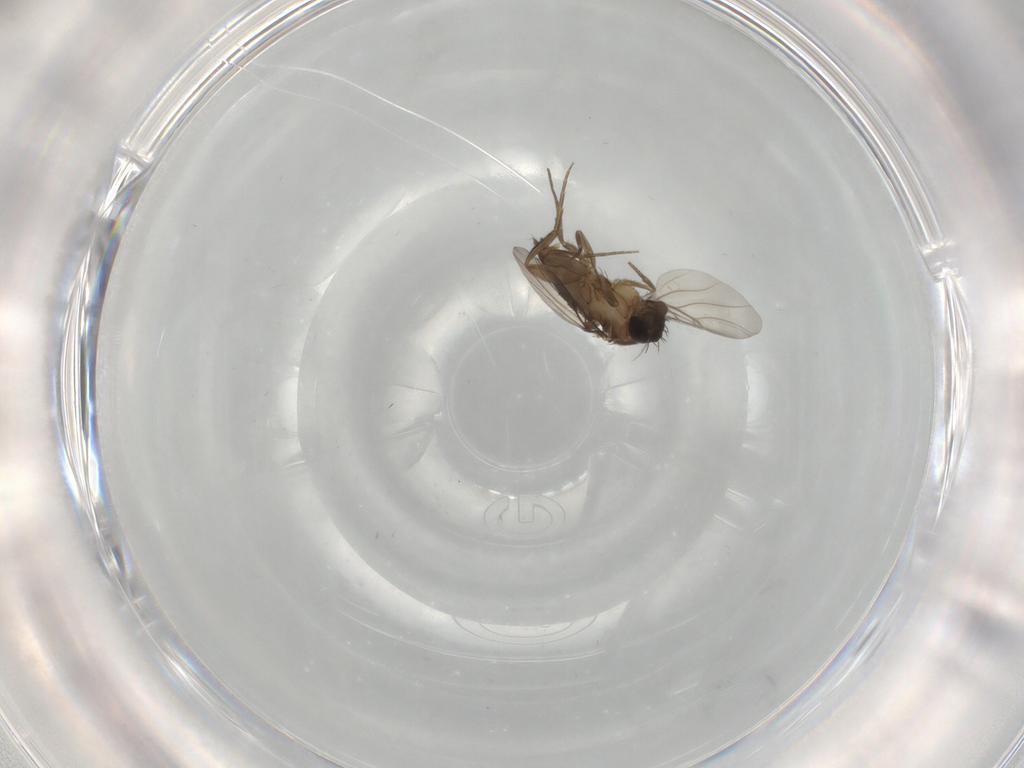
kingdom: Animalia
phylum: Arthropoda
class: Insecta
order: Diptera
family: Phoridae
